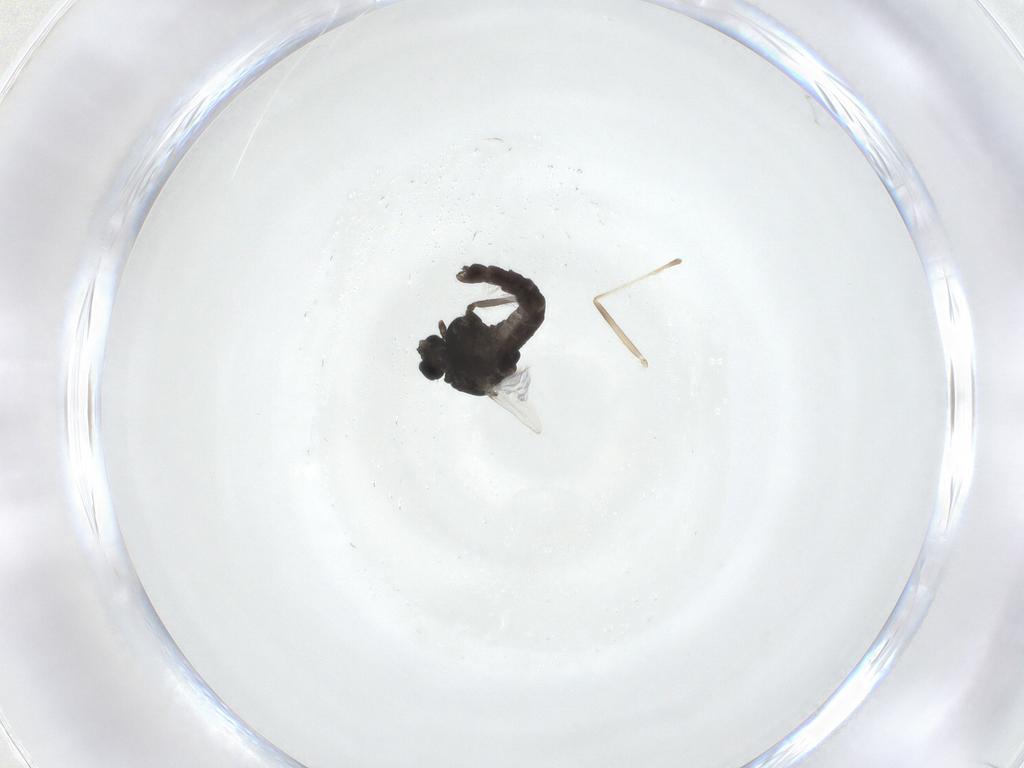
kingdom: Animalia
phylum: Arthropoda
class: Insecta
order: Diptera
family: Chironomidae
